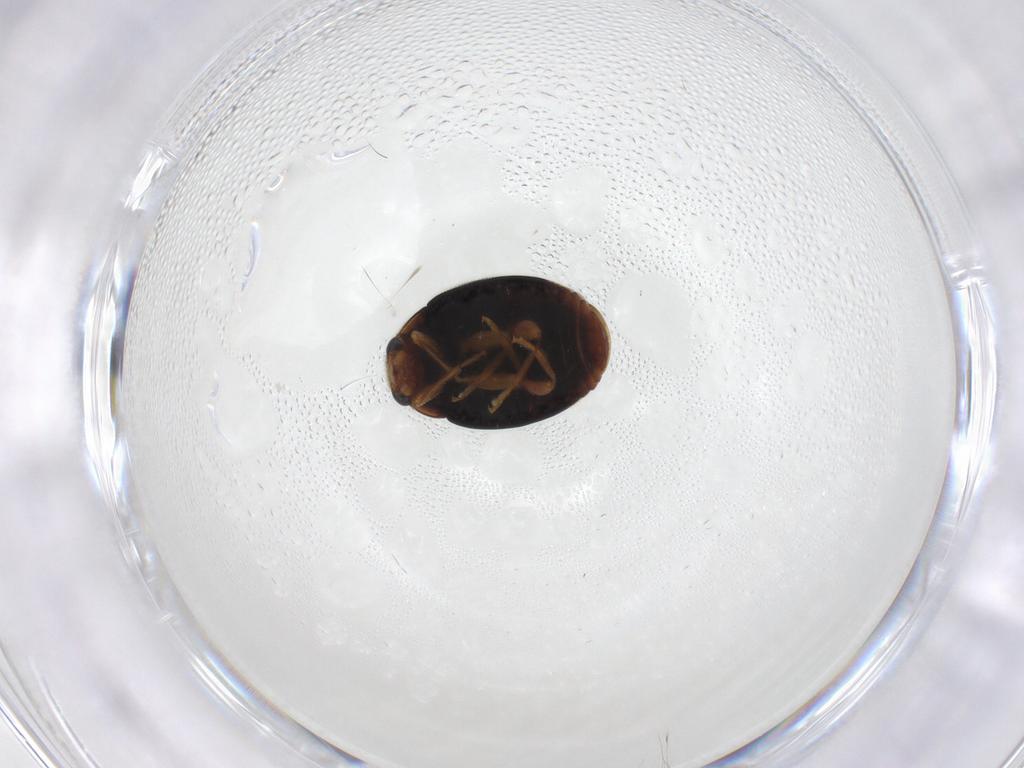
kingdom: Animalia
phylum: Arthropoda
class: Insecta
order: Coleoptera
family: Coccinellidae
